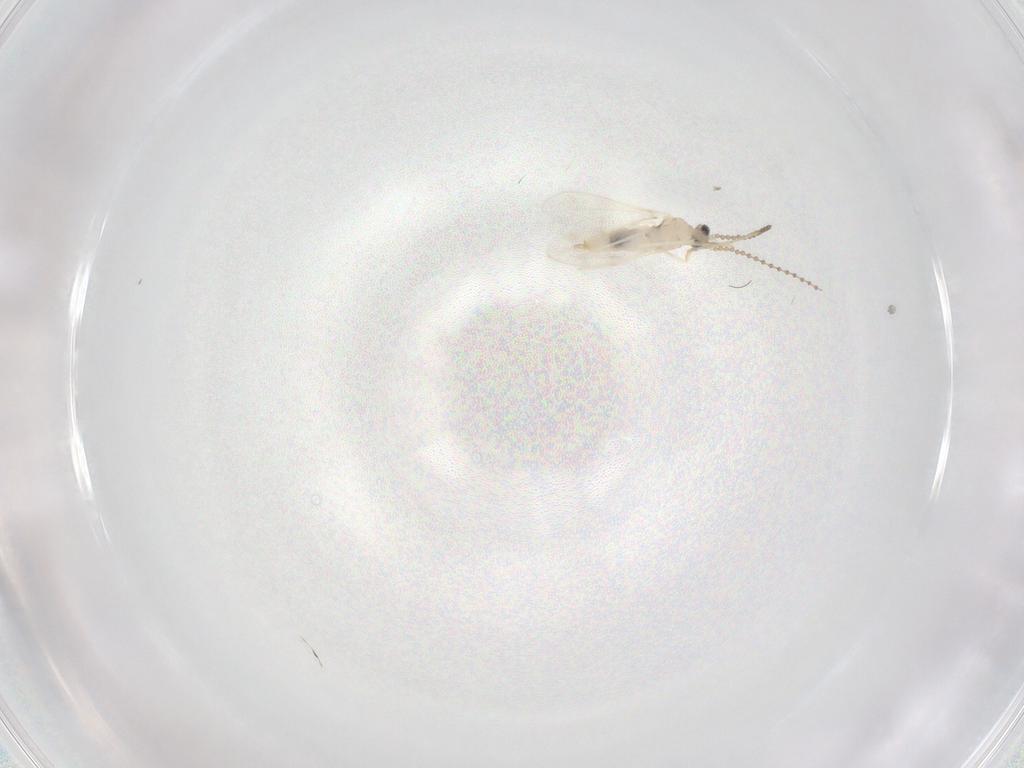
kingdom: Animalia
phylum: Arthropoda
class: Insecta
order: Diptera
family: Cecidomyiidae
